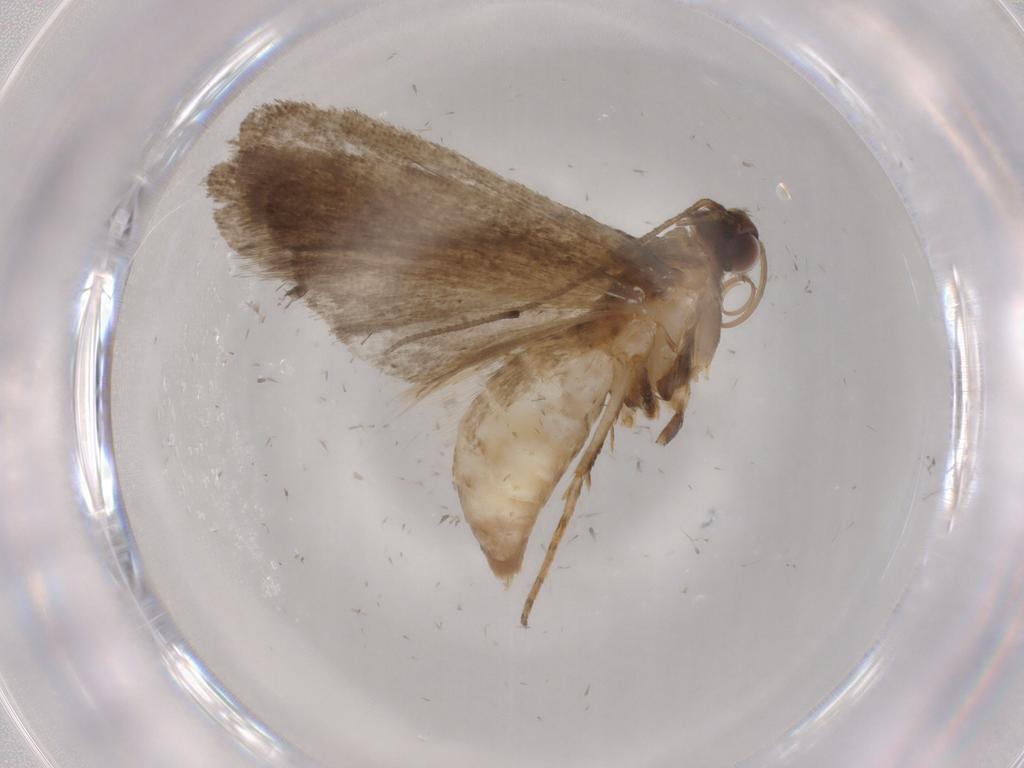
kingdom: Animalia
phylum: Arthropoda
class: Insecta
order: Lepidoptera
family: Noctuidae
